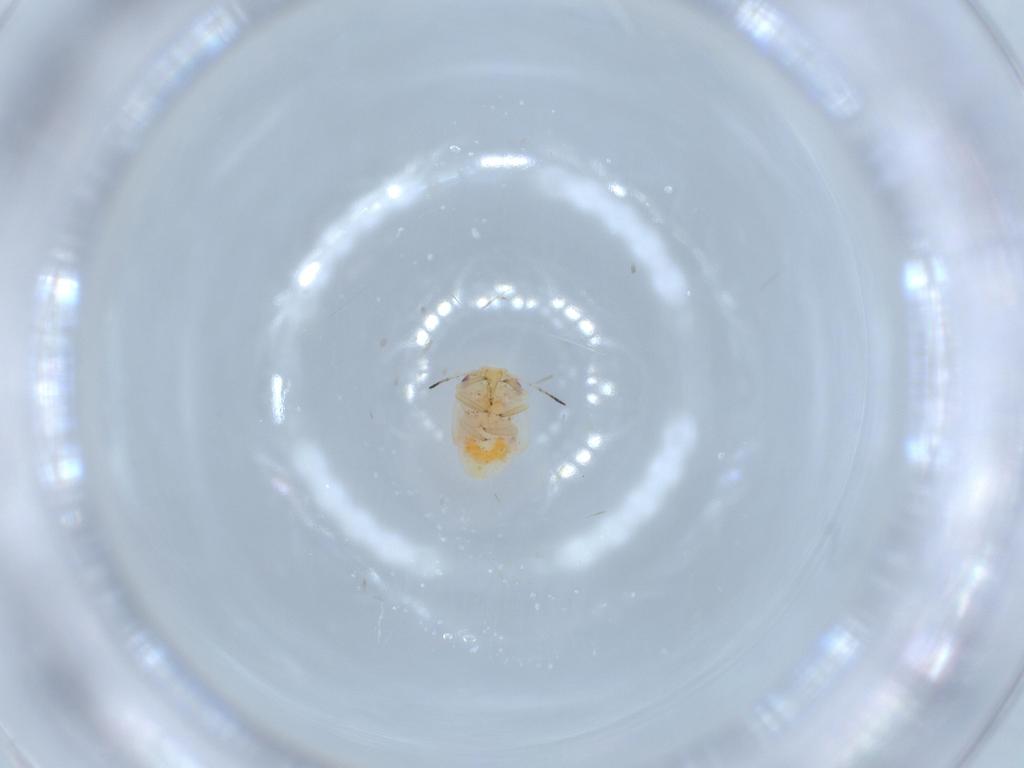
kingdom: Animalia
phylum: Arthropoda
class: Insecta
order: Hemiptera
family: Psyllidae
